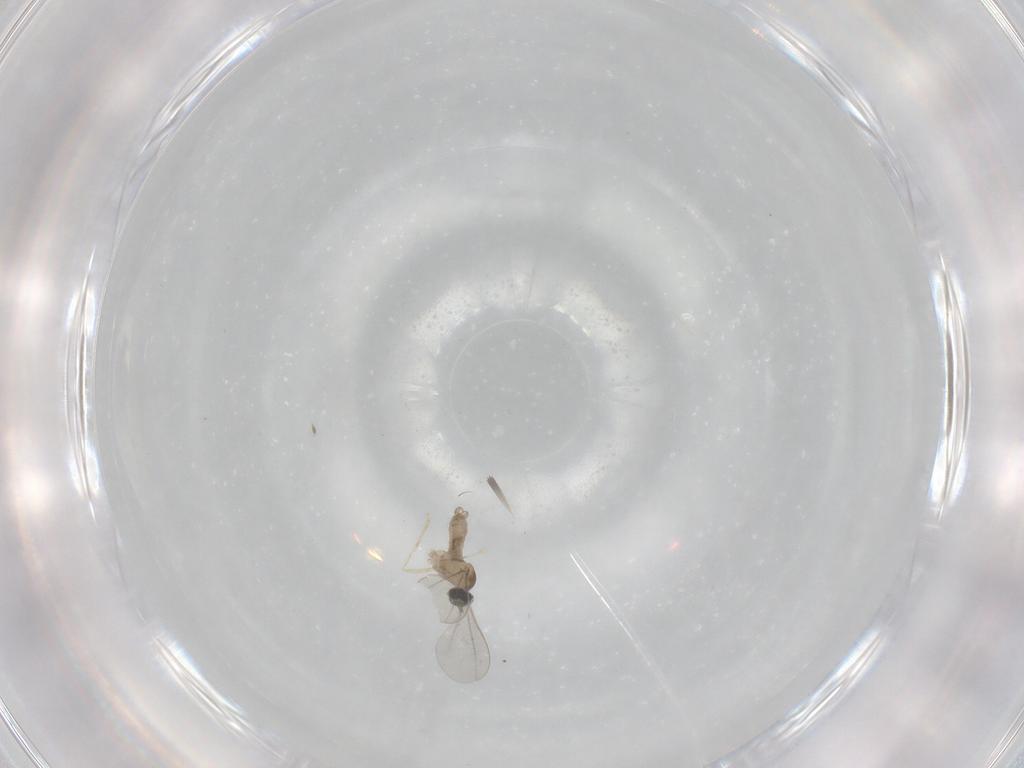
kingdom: Animalia
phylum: Arthropoda
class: Insecta
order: Diptera
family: Cecidomyiidae
